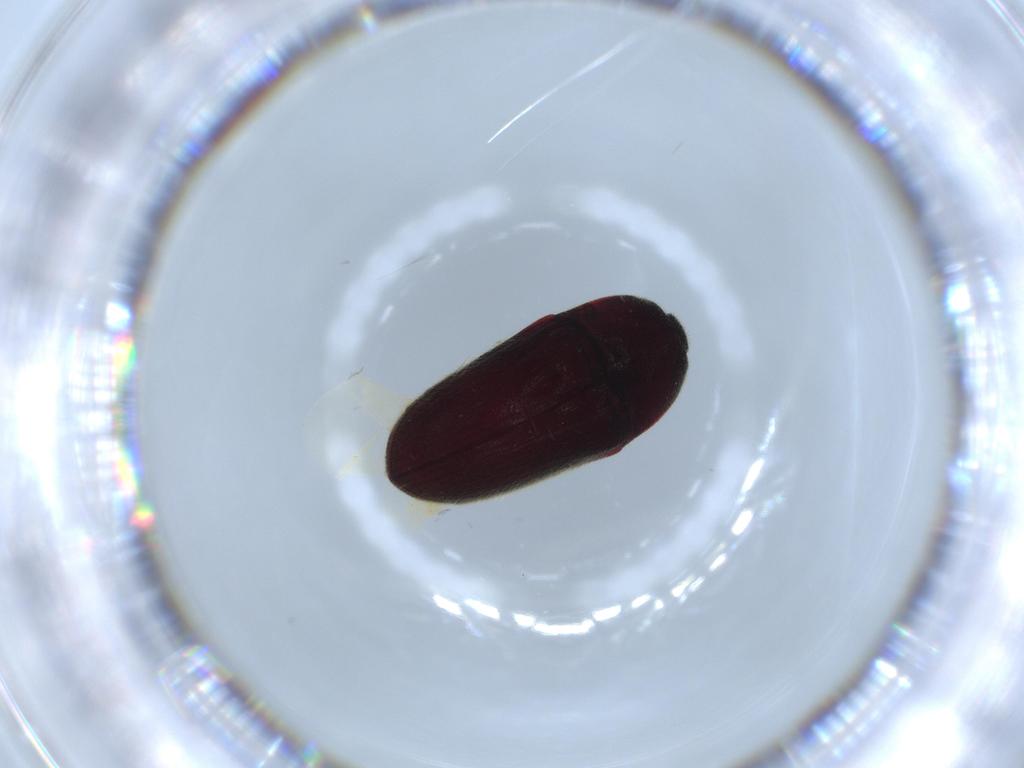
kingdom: Animalia
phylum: Arthropoda
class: Insecta
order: Coleoptera
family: Throscidae
